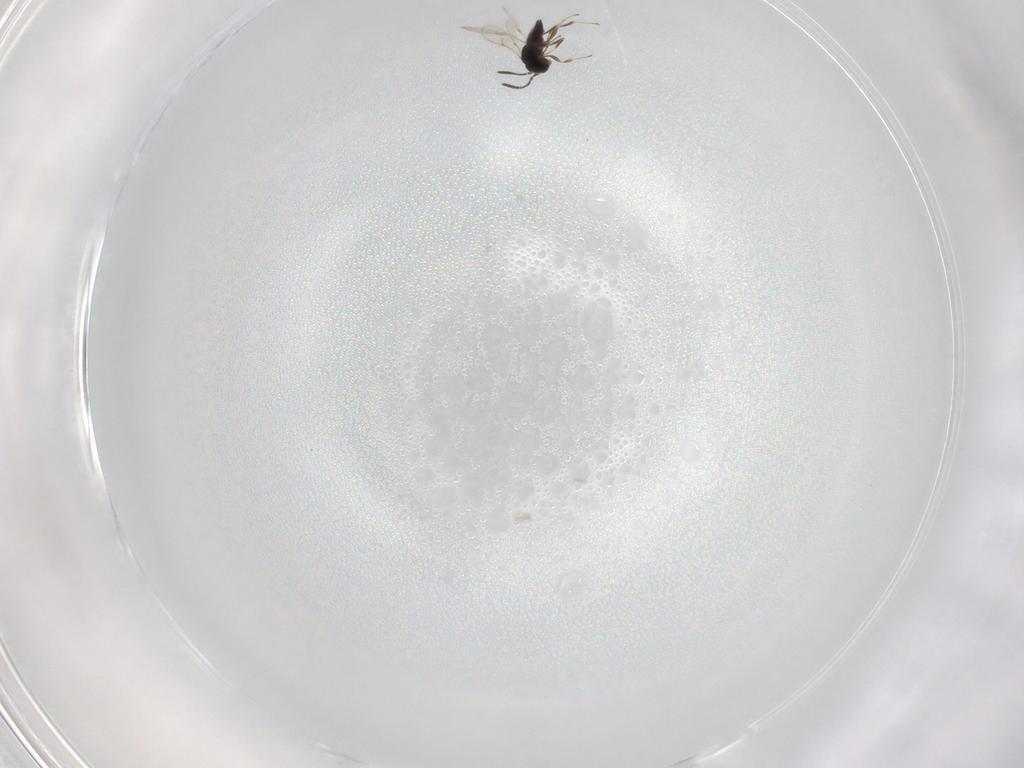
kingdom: Animalia
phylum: Arthropoda
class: Insecta
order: Hymenoptera
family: Scelionidae
